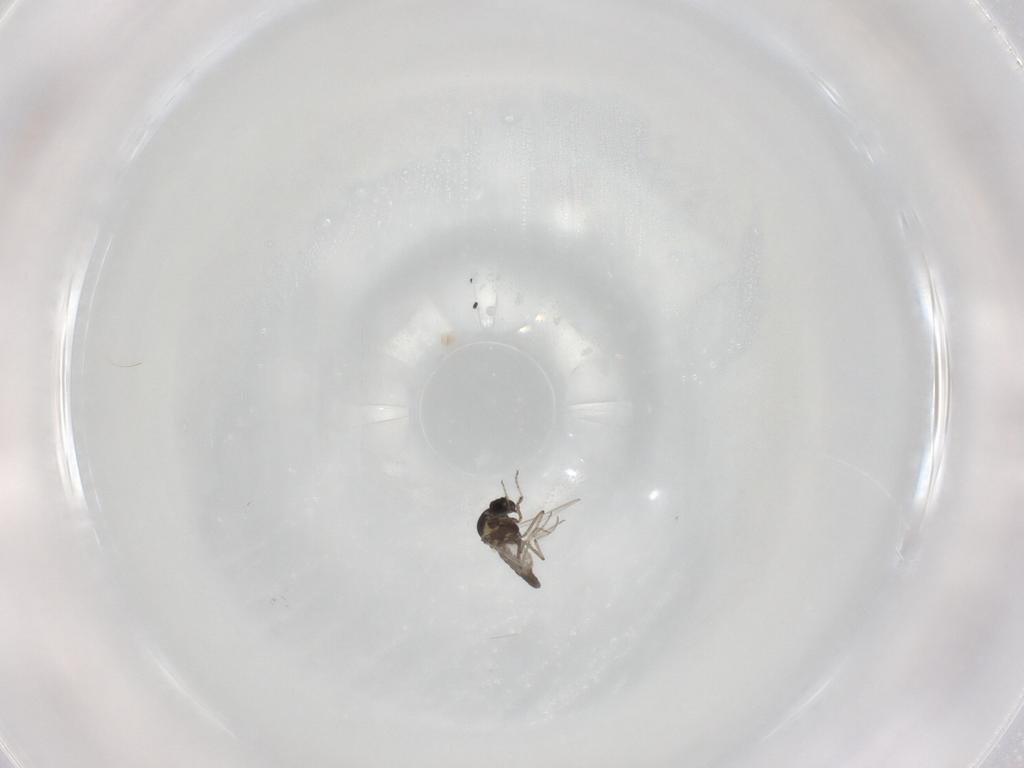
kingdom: Animalia
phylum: Arthropoda
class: Insecta
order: Diptera
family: Ceratopogonidae
